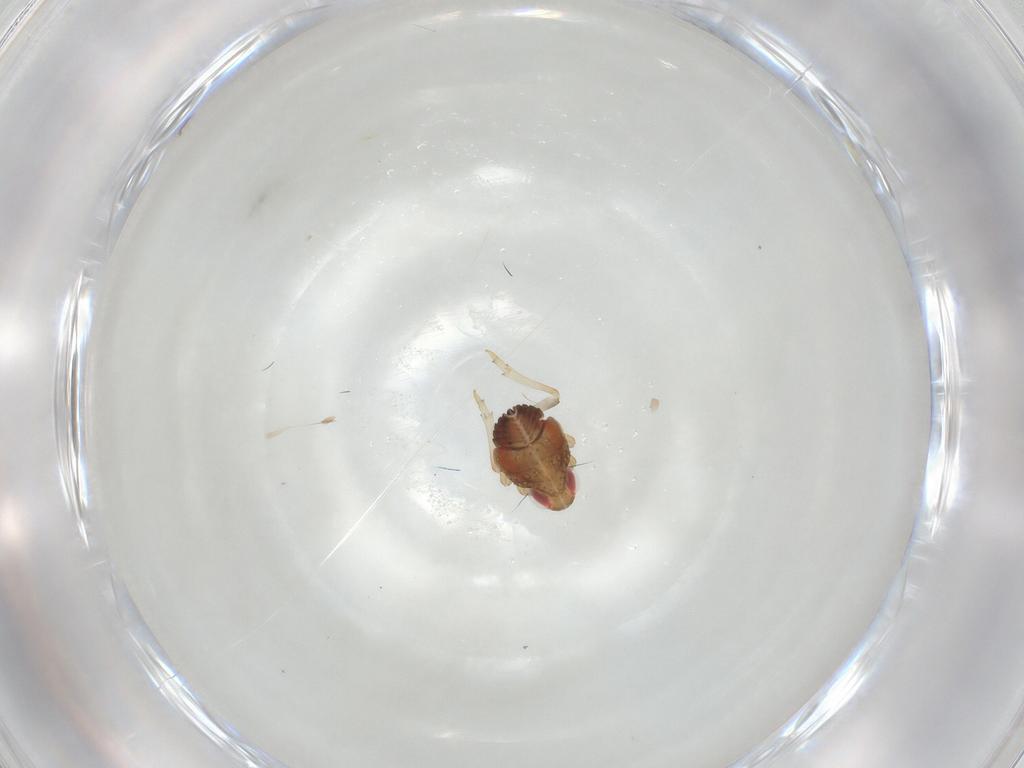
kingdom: Animalia
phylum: Arthropoda
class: Insecta
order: Hemiptera
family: Issidae
